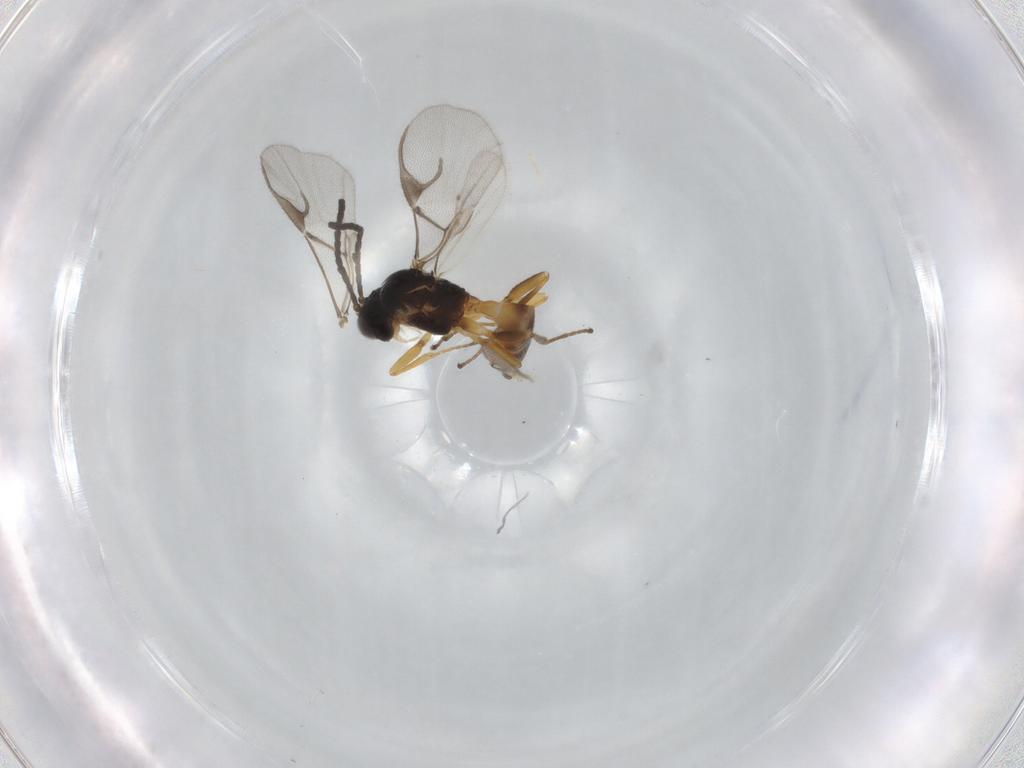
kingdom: Animalia
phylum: Arthropoda
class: Insecta
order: Hymenoptera
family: Braconidae
